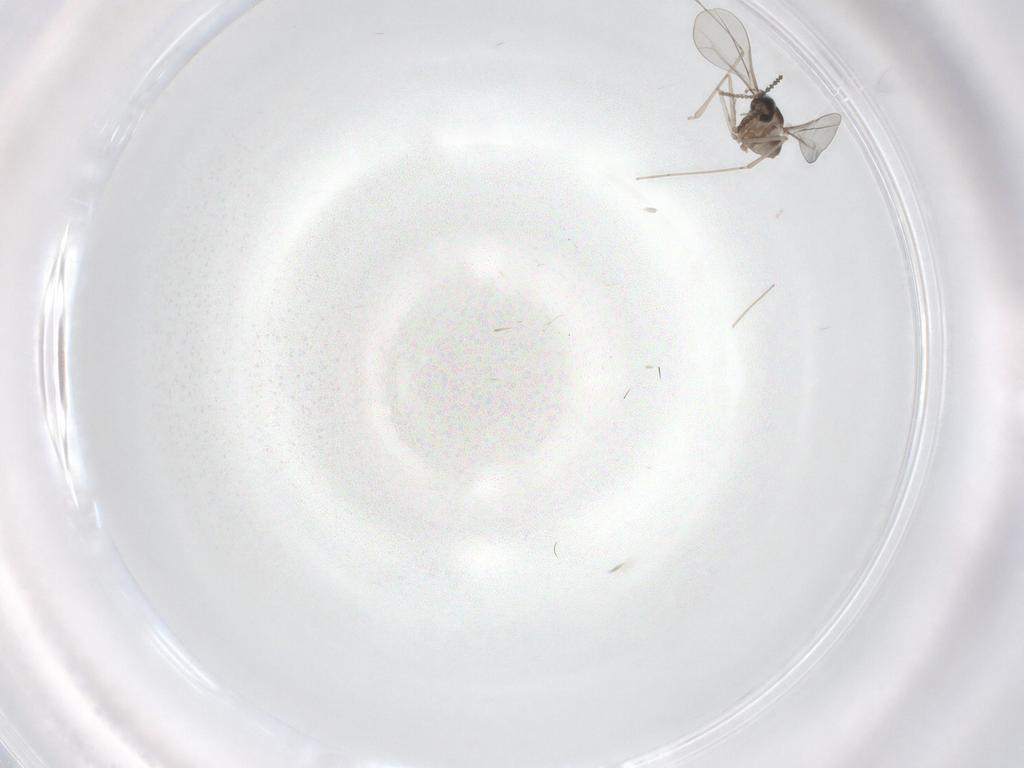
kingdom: Animalia
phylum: Arthropoda
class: Insecta
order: Diptera
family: Cecidomyiidae
